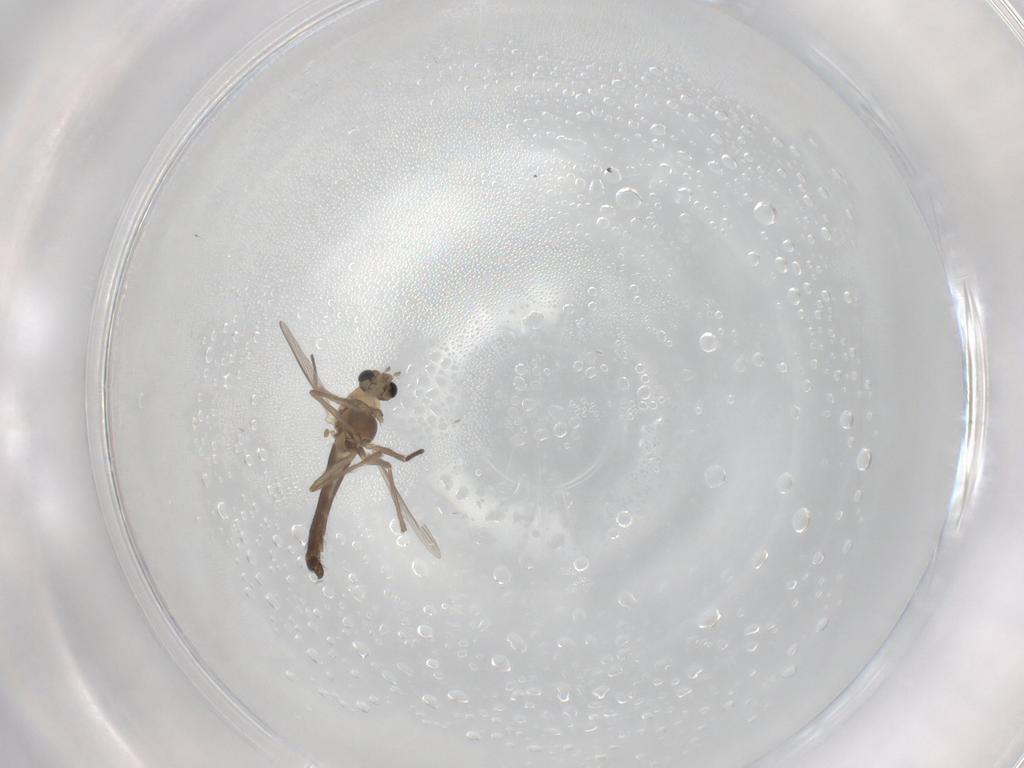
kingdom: Animalia
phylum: Arthropoda
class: Insecta
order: Diptera
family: Chironomidae
